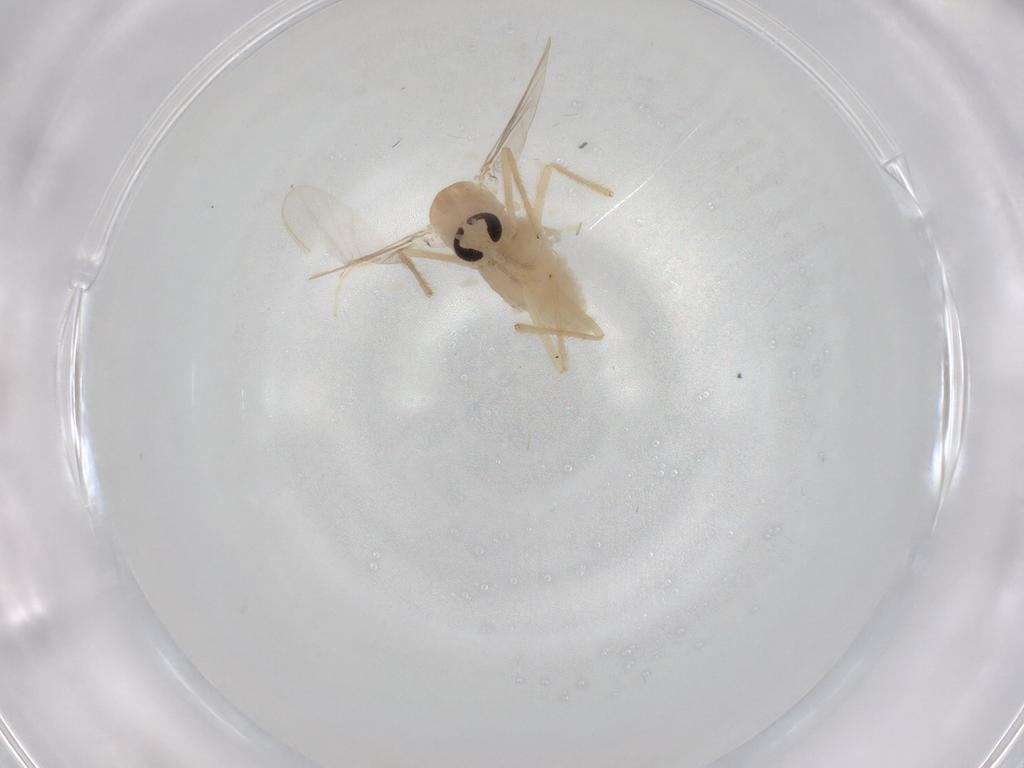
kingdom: Animalia
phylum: Arthropoda
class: Insecta
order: Diptera
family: Chironomidae
